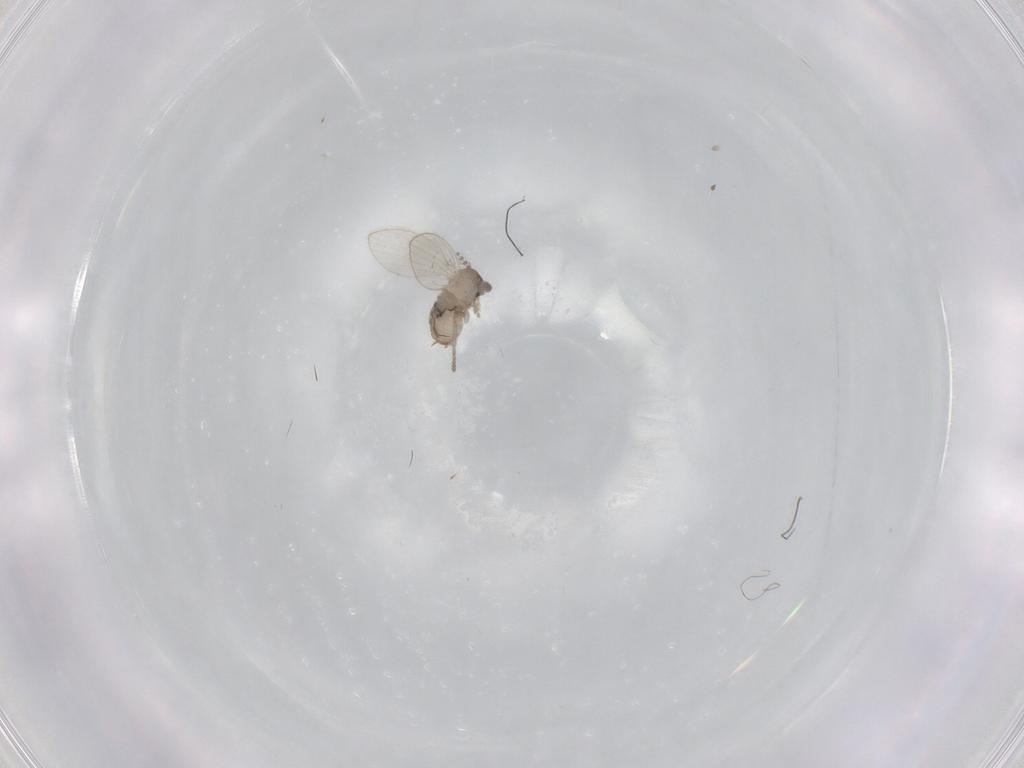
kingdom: Animalia
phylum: Arthropoda
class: Insecta
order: Diptera
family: Psychodidae
